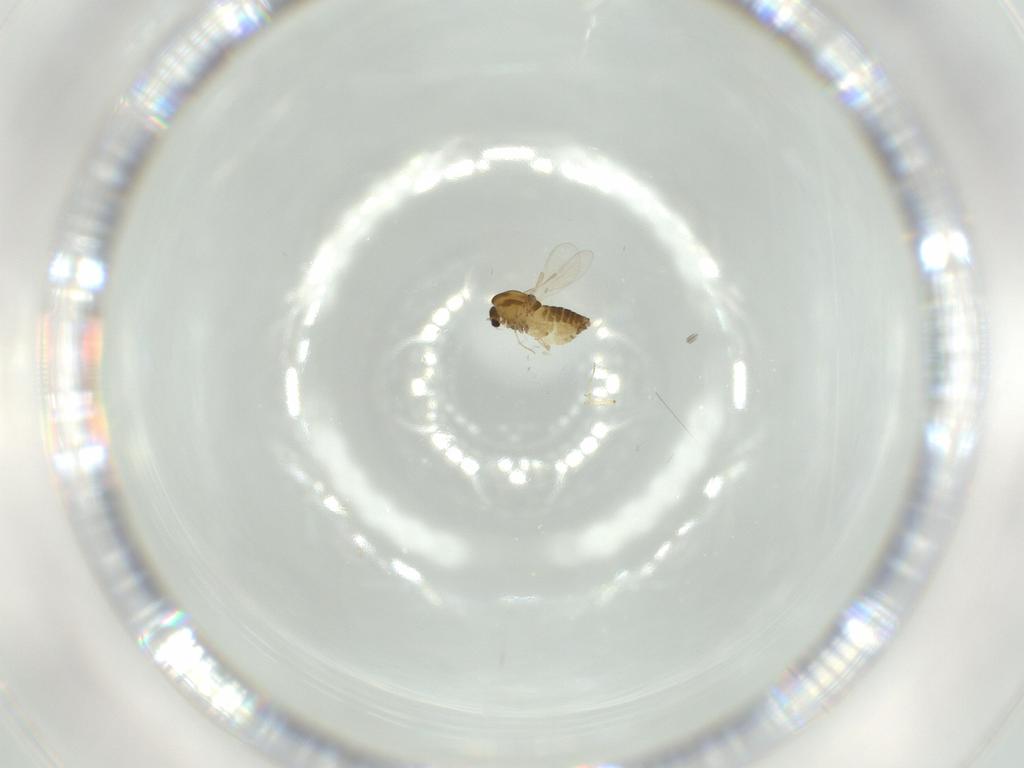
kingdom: Animalia
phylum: Arthropoda
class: Insecta
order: Diptera
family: Chironomidae
